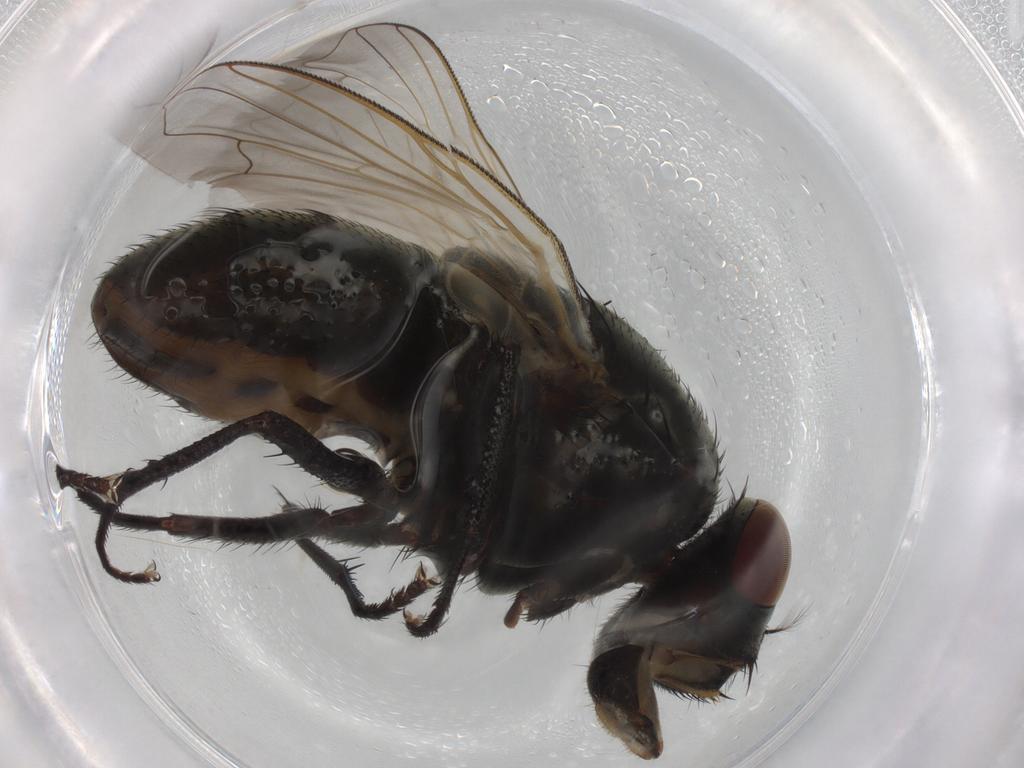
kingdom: Animalia
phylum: Arthropoda
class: Insecta
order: Diptera
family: Muscidae
